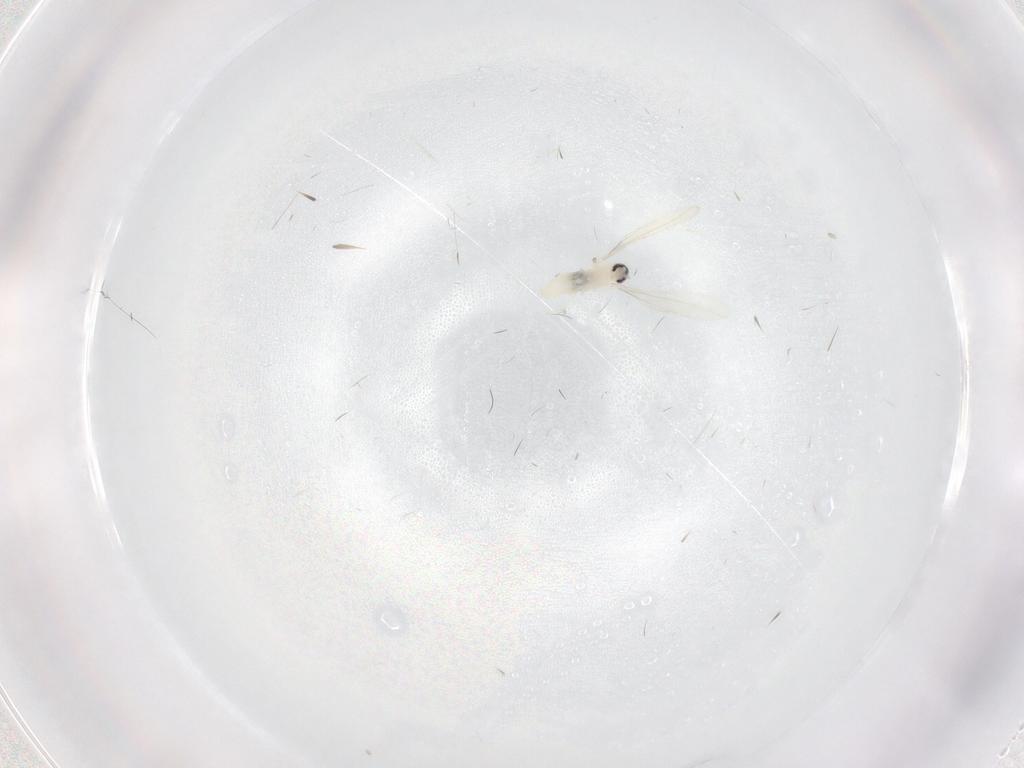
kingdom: Animalia
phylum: Arthropoda
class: Insecta
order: Diptera
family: Cecidomyiidae
